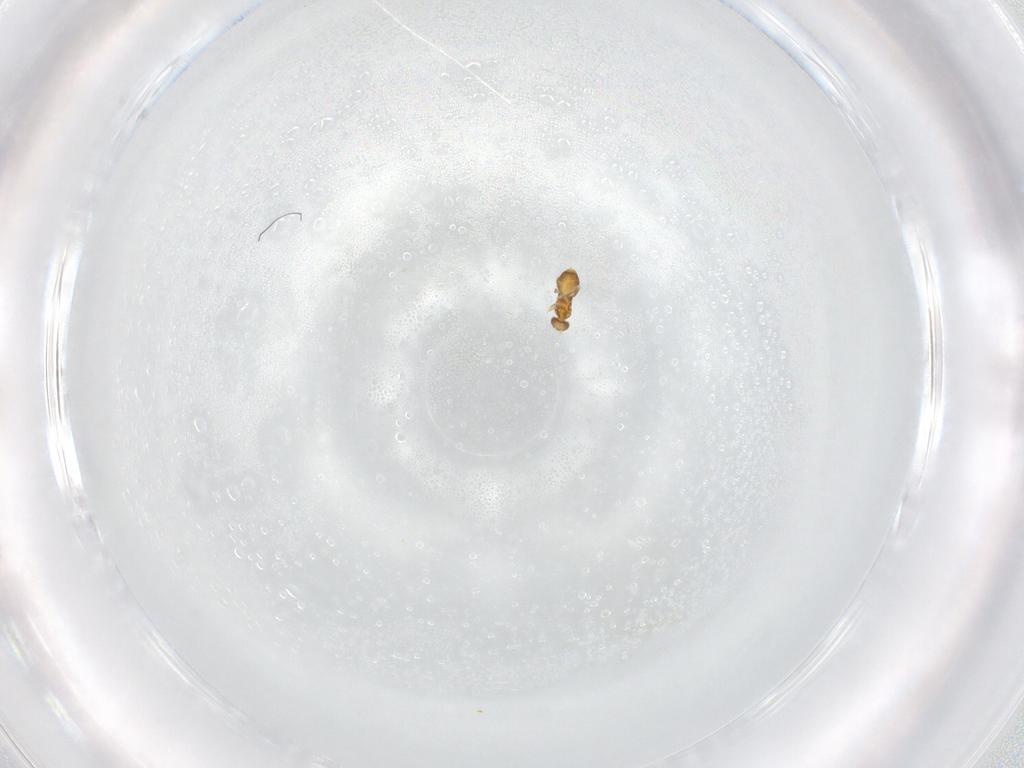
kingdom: Animalia
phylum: Arthropoda
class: Insecta
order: Hymenoptera
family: Trichogrammatidae
